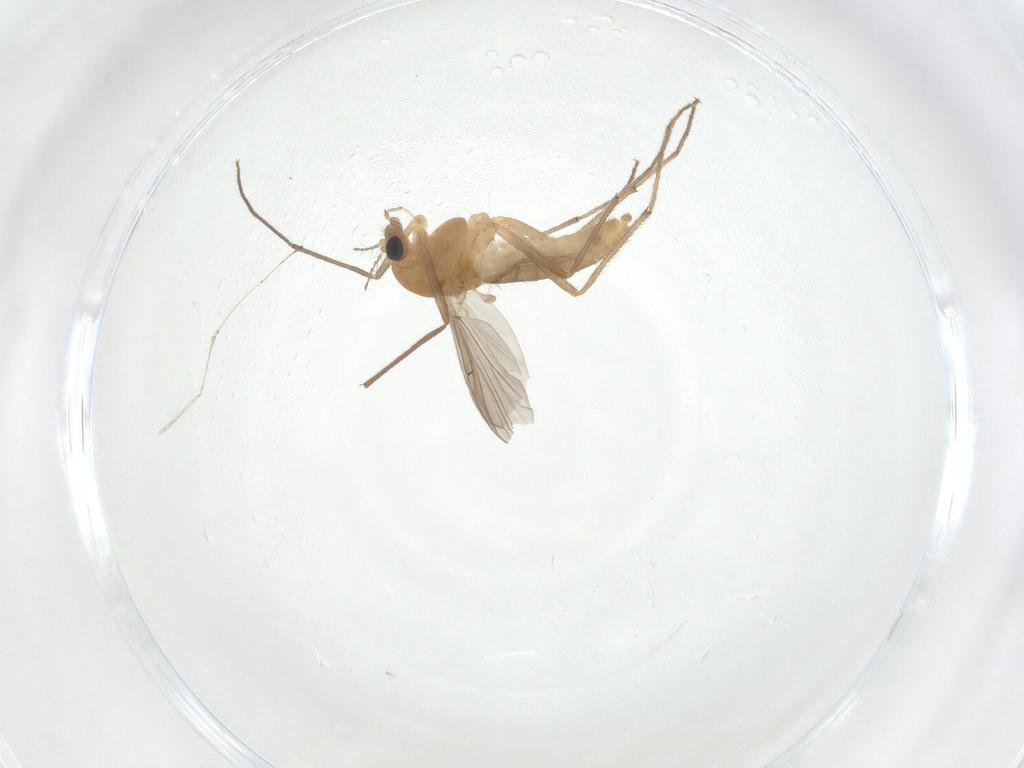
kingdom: Animalia
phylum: Arthropoda
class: Insecta
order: Diptera
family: Chironomidae
